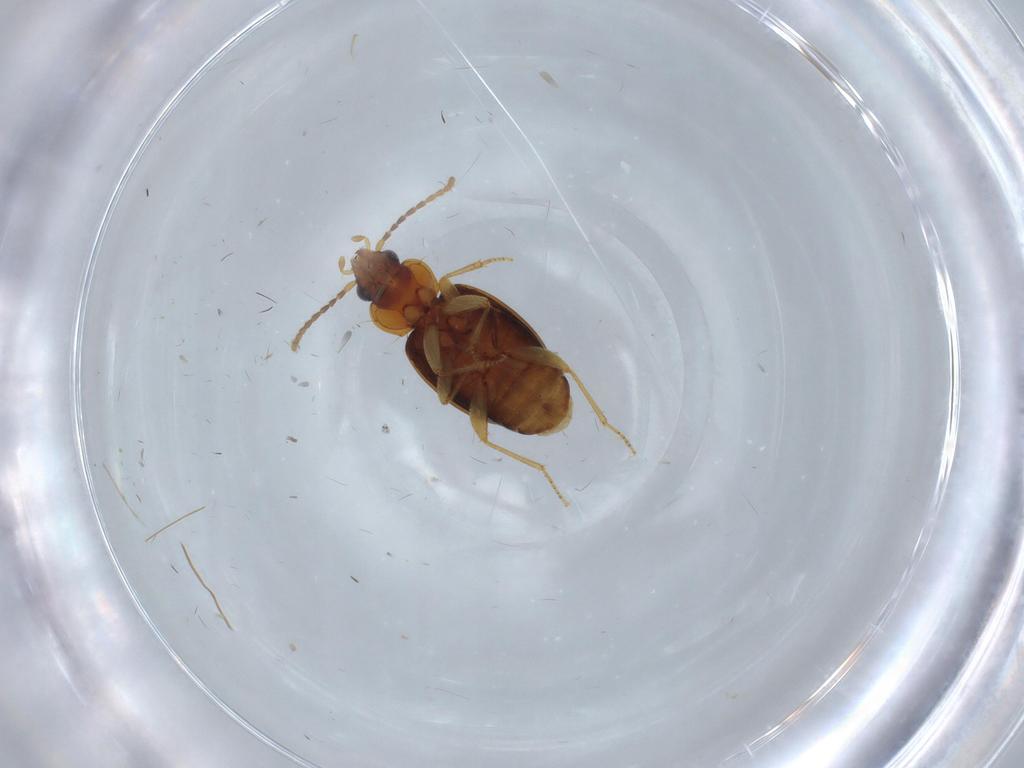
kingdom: Animalia
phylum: Arthropoda
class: Insecta
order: Coleoptera
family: Carabidae
